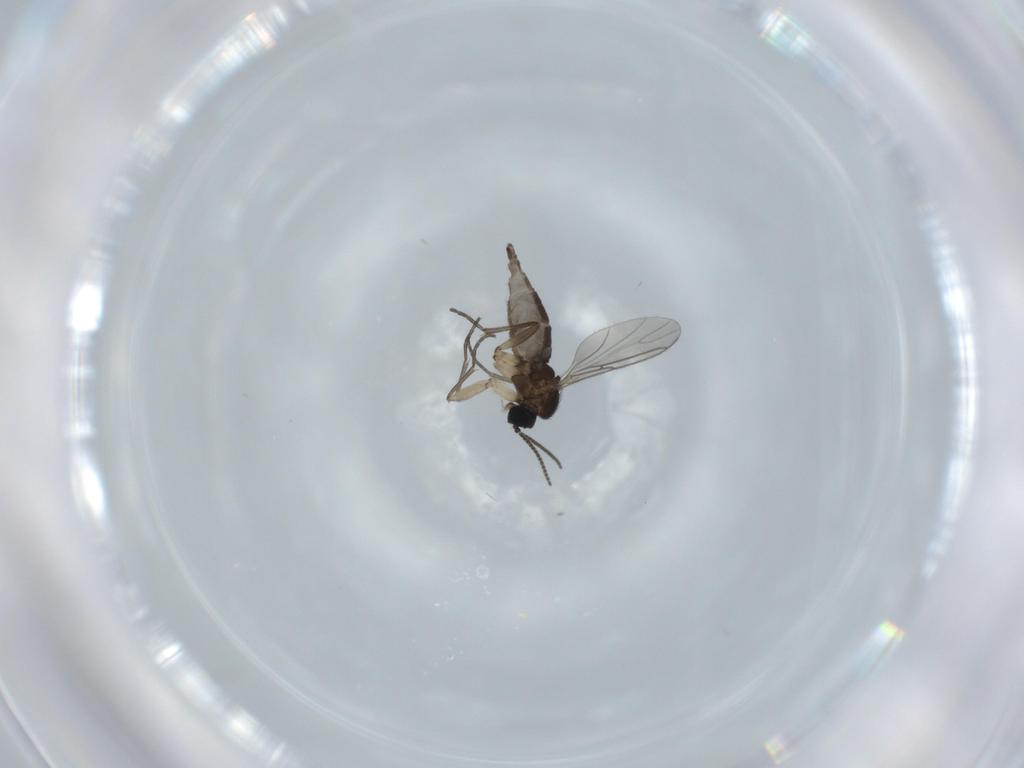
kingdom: Animalia
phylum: Arthropoda
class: Insecta
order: Diptera
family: Sciaridae
